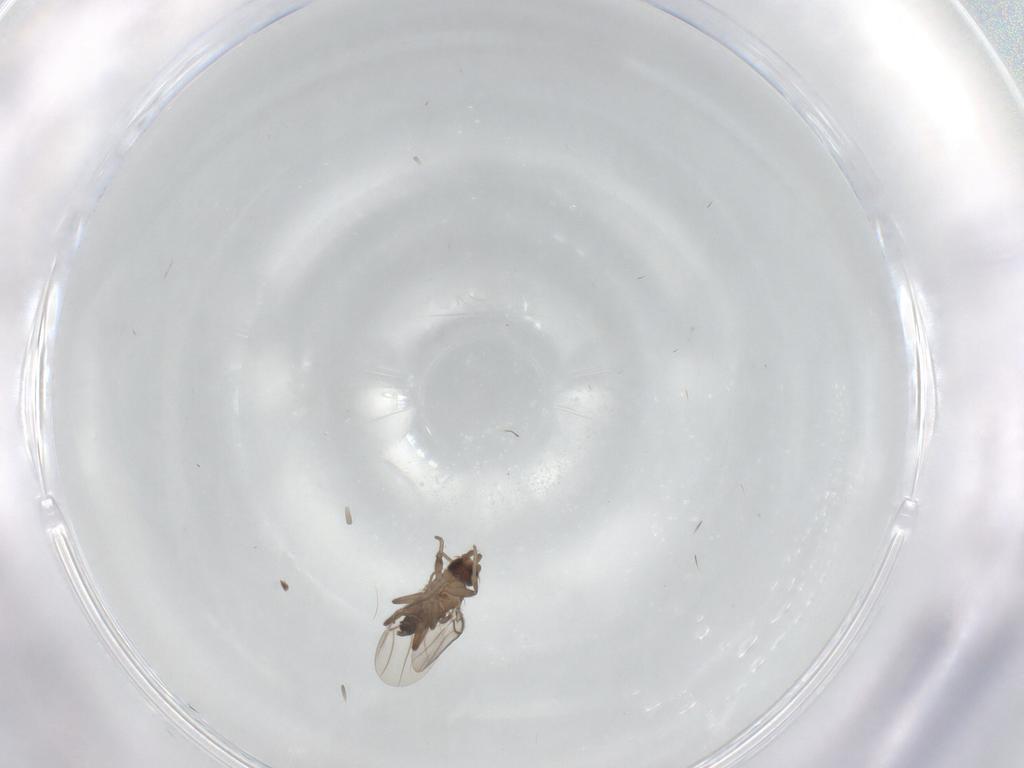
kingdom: Animalia
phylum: Arthropoda
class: Insecta
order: Diptera
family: Phoridae
